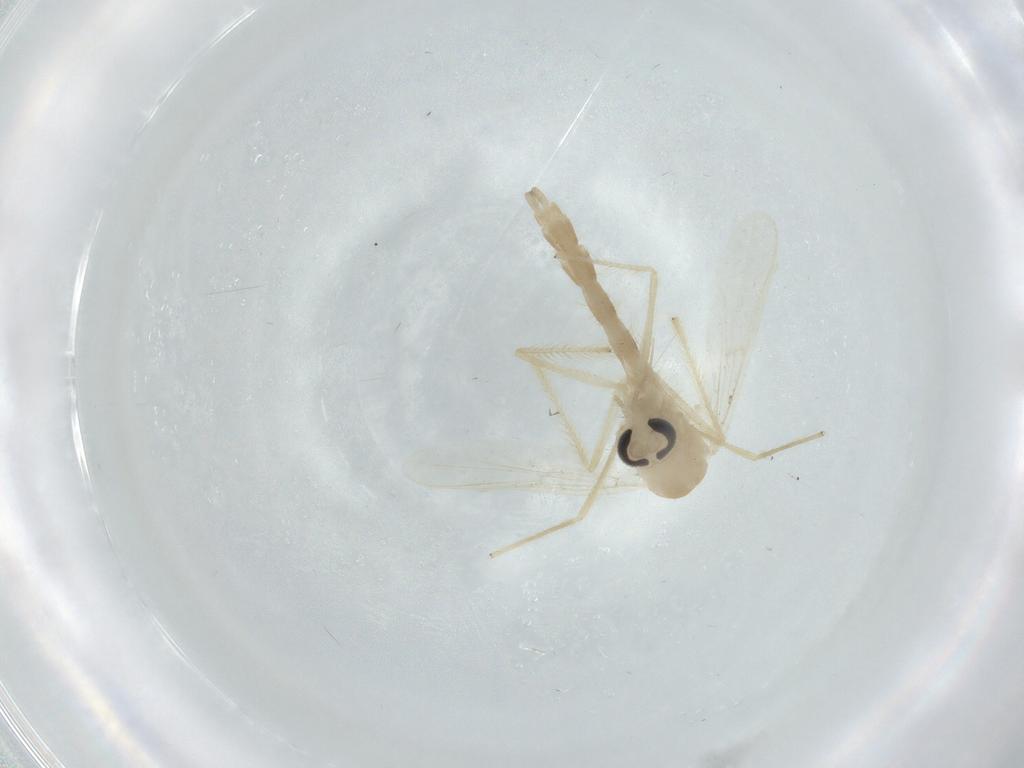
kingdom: Animalia
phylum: Arthropoda
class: Insecta
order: Diptera
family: Chironomidae
